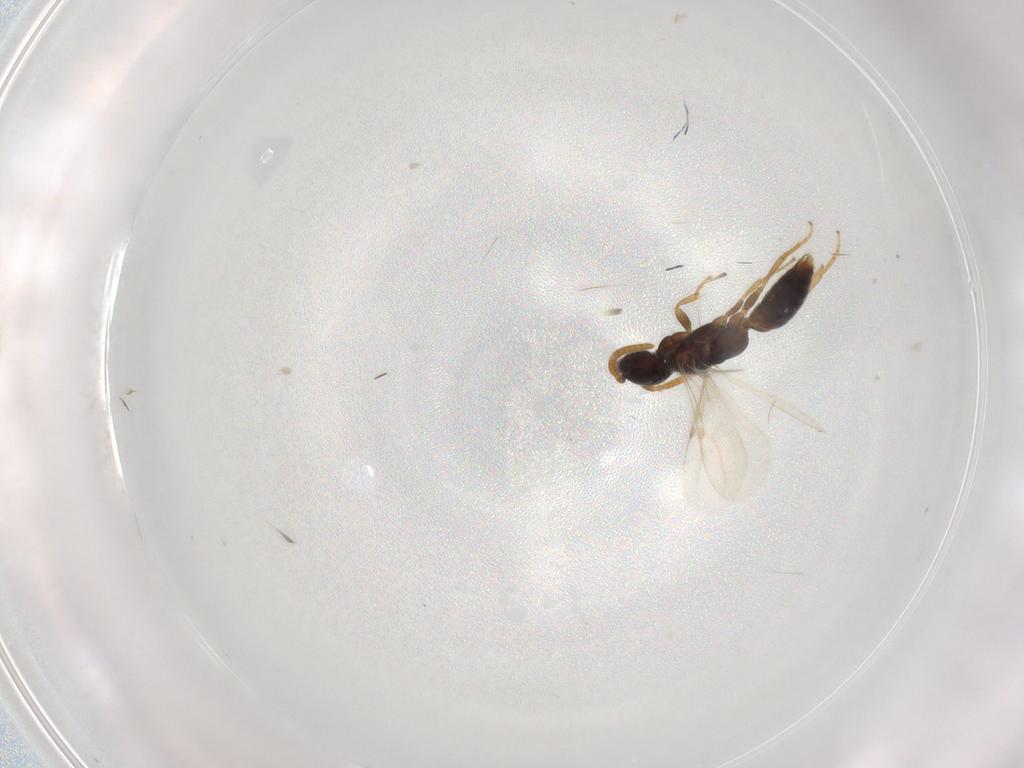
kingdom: Animalia
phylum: Arthropoda
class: Insecta
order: Hymenoptera
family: Bethylidae
